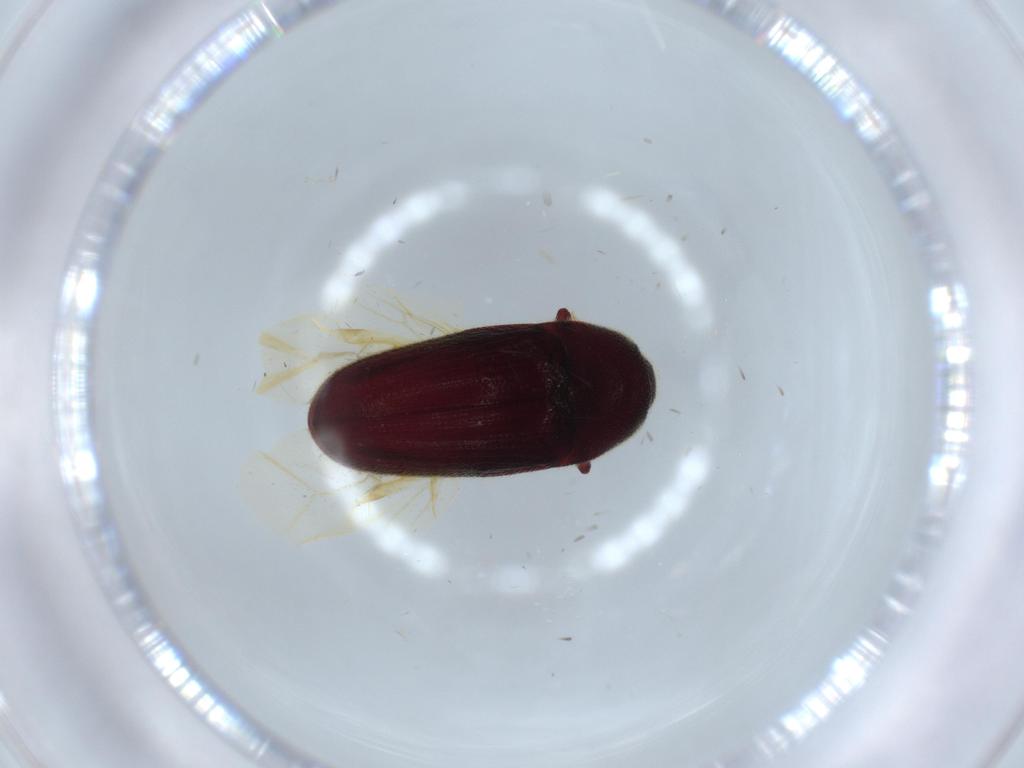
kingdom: Animalia
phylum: Arthropoda
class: Insecta
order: Coleoptera
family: Throscidae
